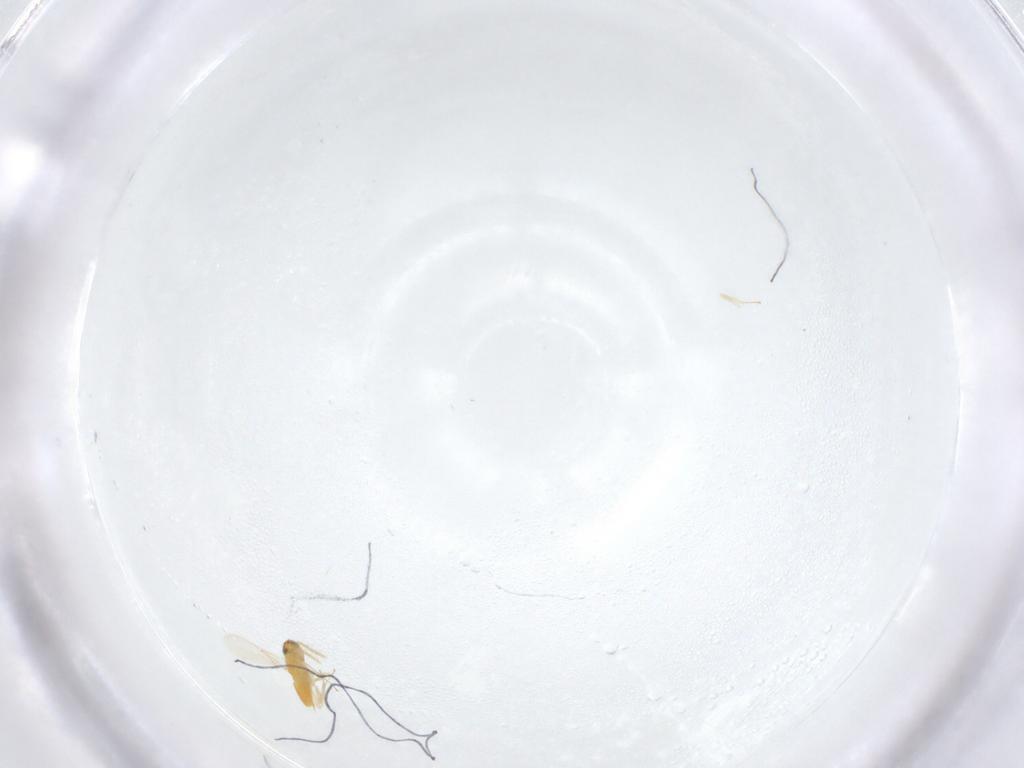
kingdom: Animalia
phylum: Arthropoda
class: Insecta
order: Hymenoptera
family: Aphelinidae
